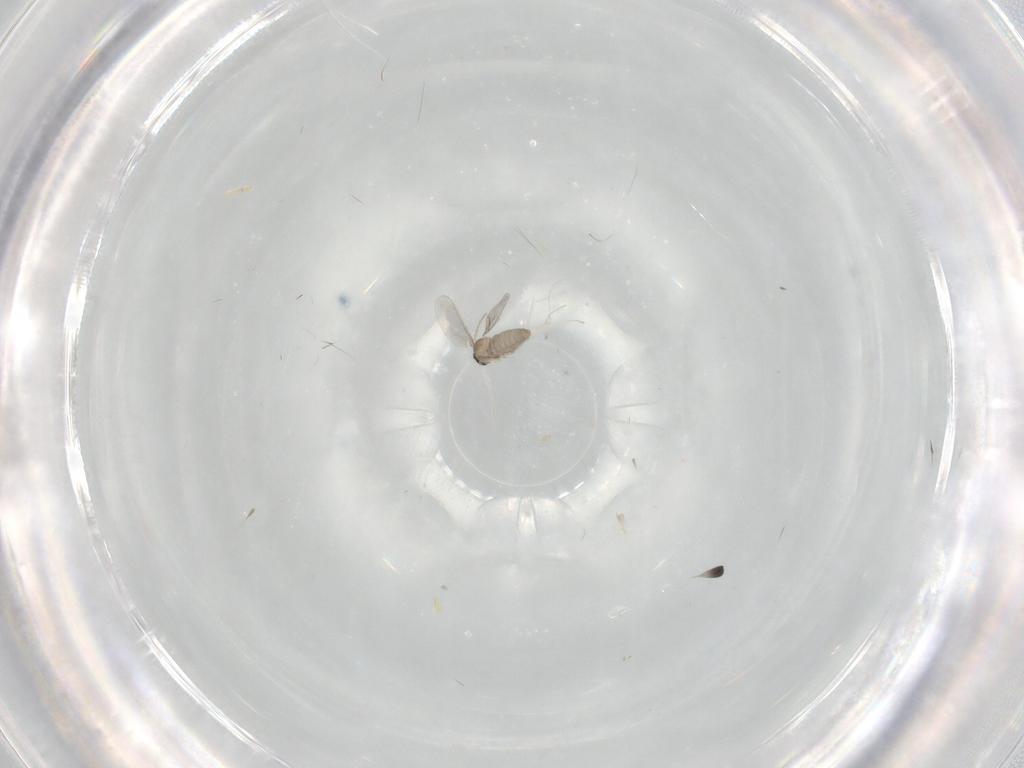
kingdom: Animalia
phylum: Arthropoda
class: Insecta
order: Diptera
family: Cecidomyiidae
